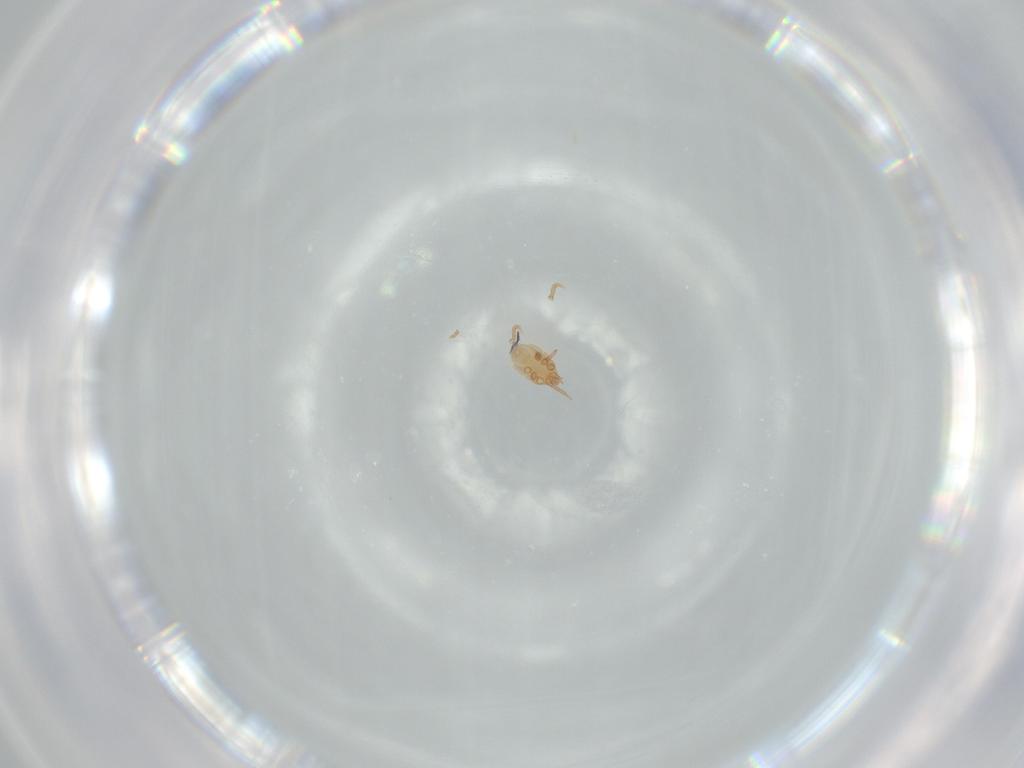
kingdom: Animalia
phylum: Arthropoda
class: Arachnida
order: Mesostigmata
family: Dinychidae
